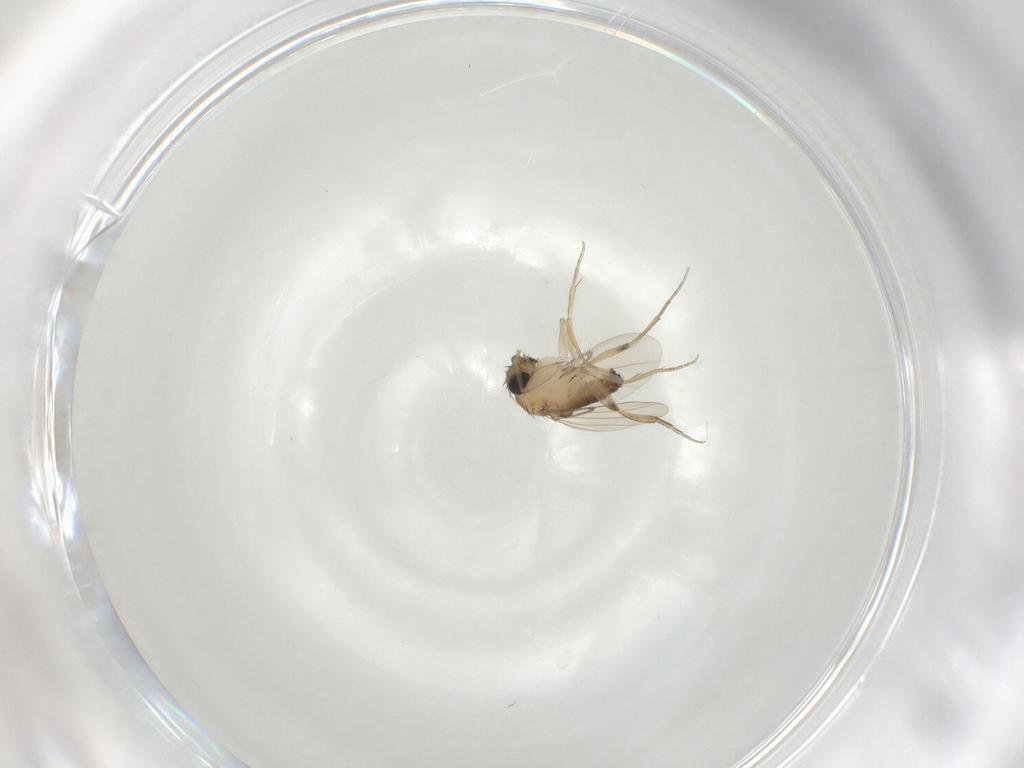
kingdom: Animalia
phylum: Arthropoda
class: Insecta
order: Diptera
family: Phoridae
